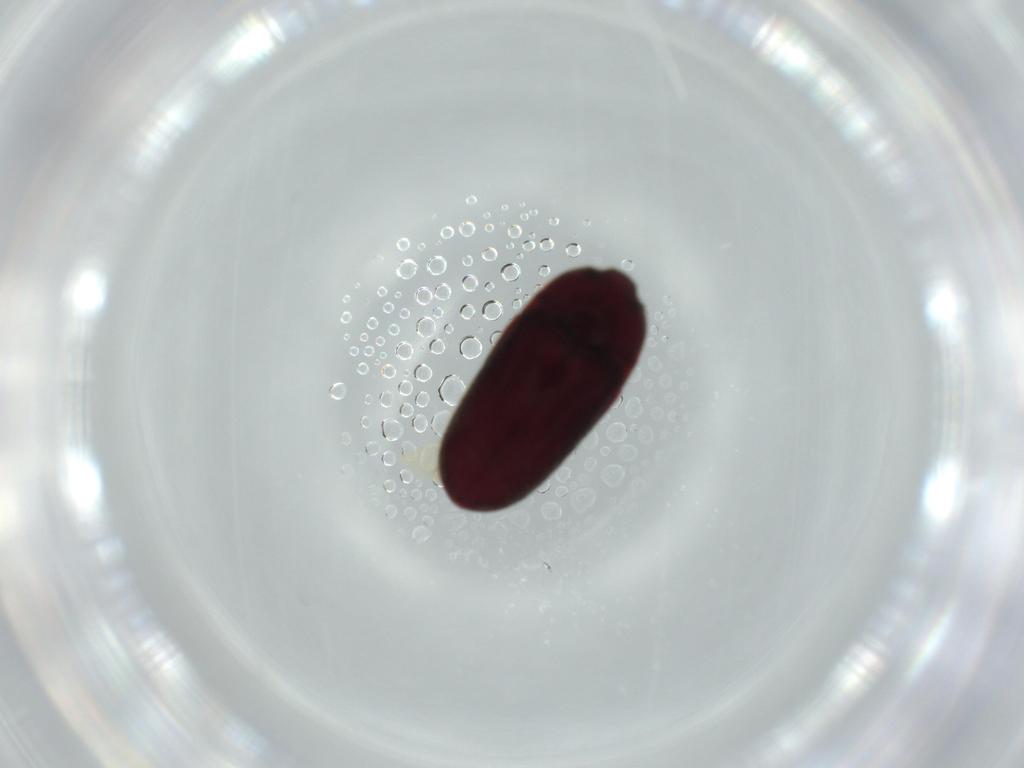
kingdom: Animalia
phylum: Arthropoda
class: Insecta
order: Coleoptera
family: Throscidae
